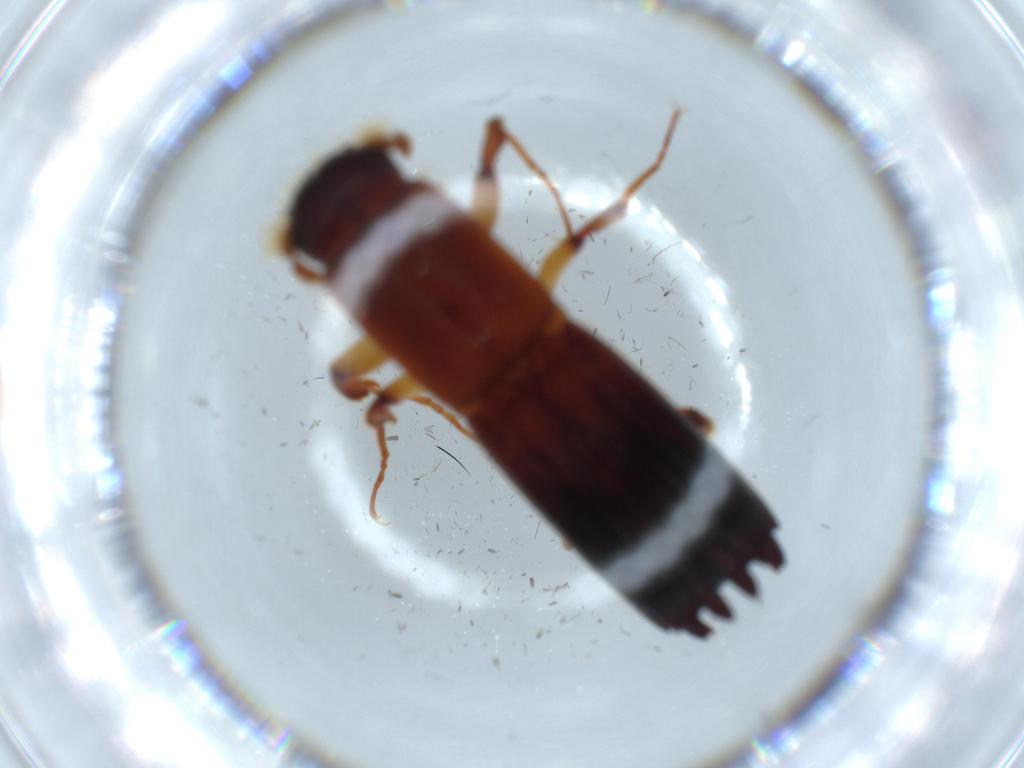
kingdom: Animalia
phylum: Arthropoda
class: Insecta
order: Coleoptera
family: Curculionidae
